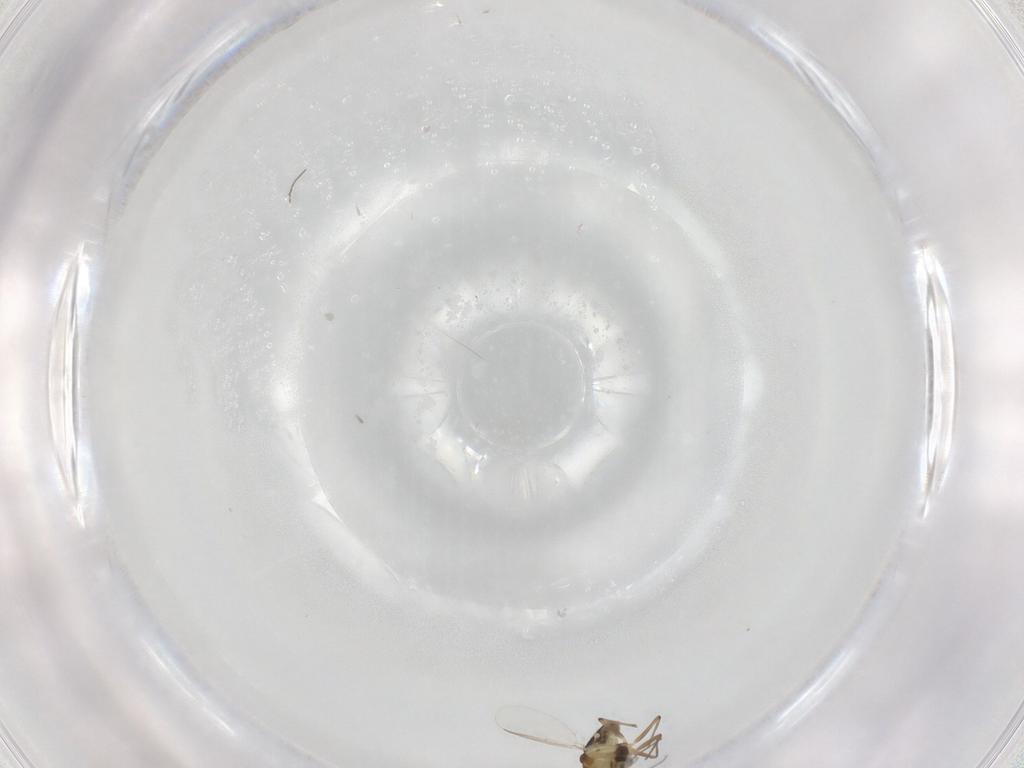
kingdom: Animalia
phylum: Arthropoda
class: Insecta
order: Diptera
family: Chironomidae
